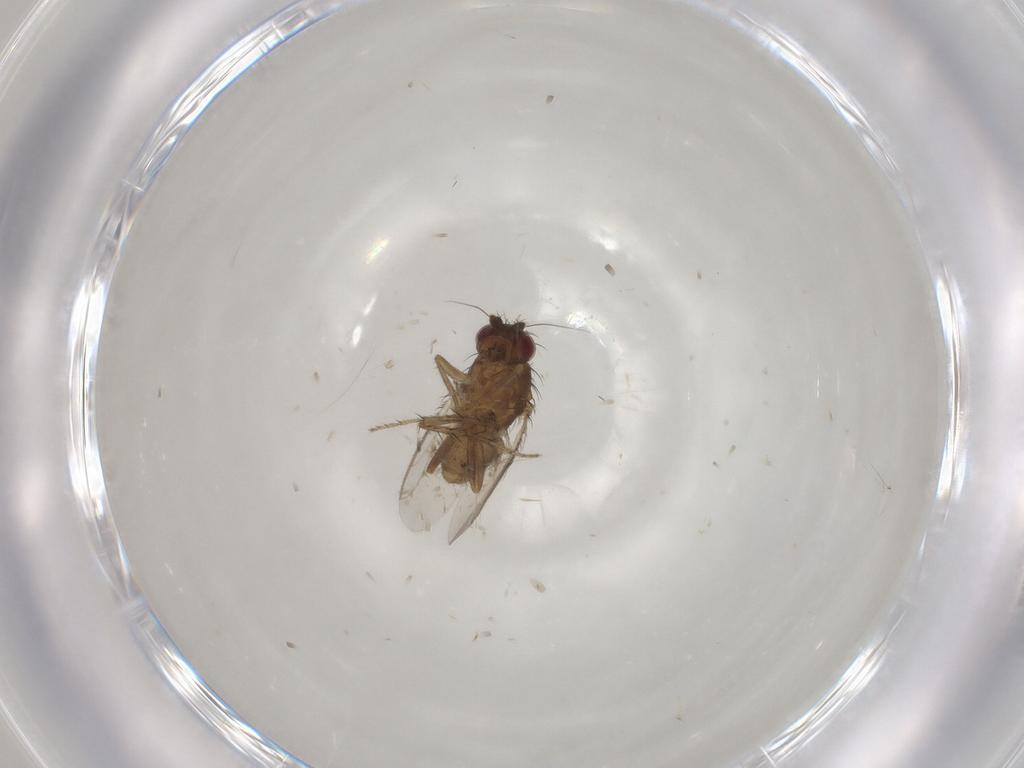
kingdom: Animalia
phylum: Arthropoda
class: Insecta
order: Diptera
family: Sphaeroceridae
